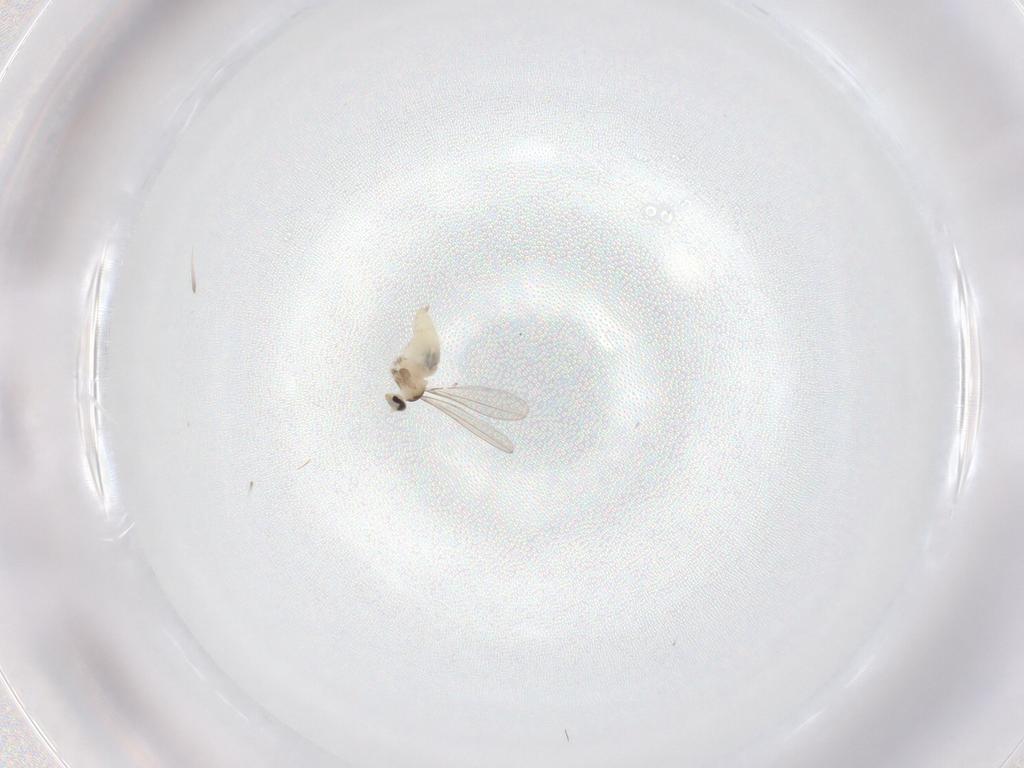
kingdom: Animalia
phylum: Arthropoda
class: Insecta
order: Diptera
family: Cecidomyiidae
